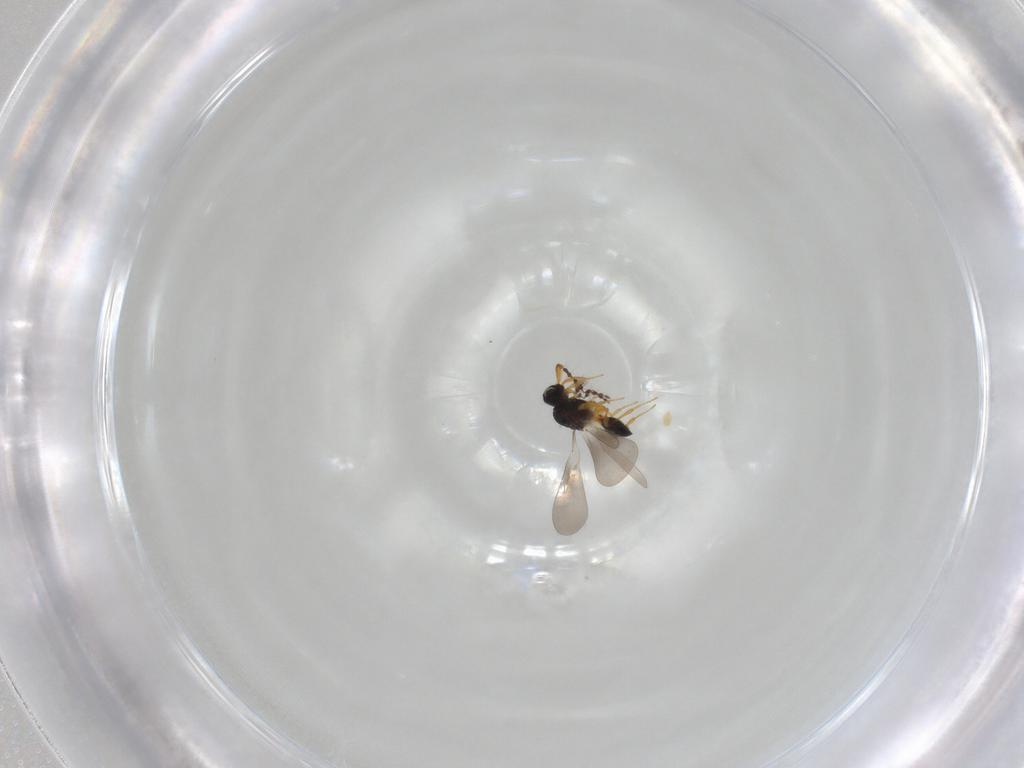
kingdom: Animalia
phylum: Arthropoda
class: Insecta
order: Hymenoptera
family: Platygastridae
